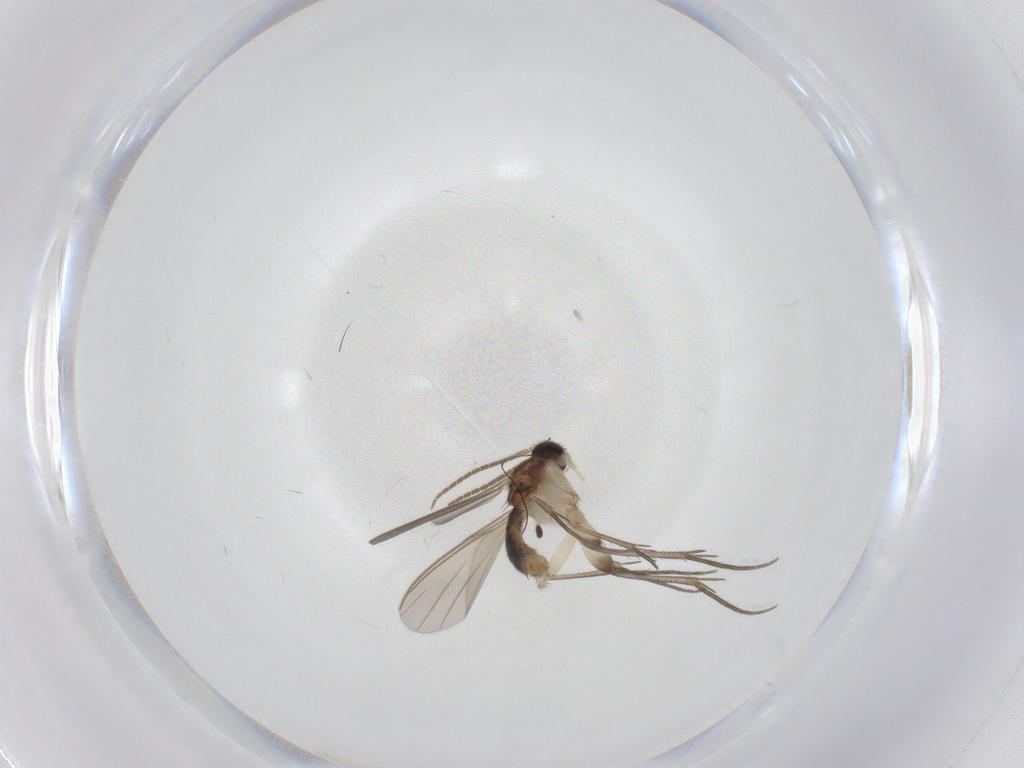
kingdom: Animalia
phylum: Arthropoda
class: Insecta
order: Diptera
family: Mycetophilidae
